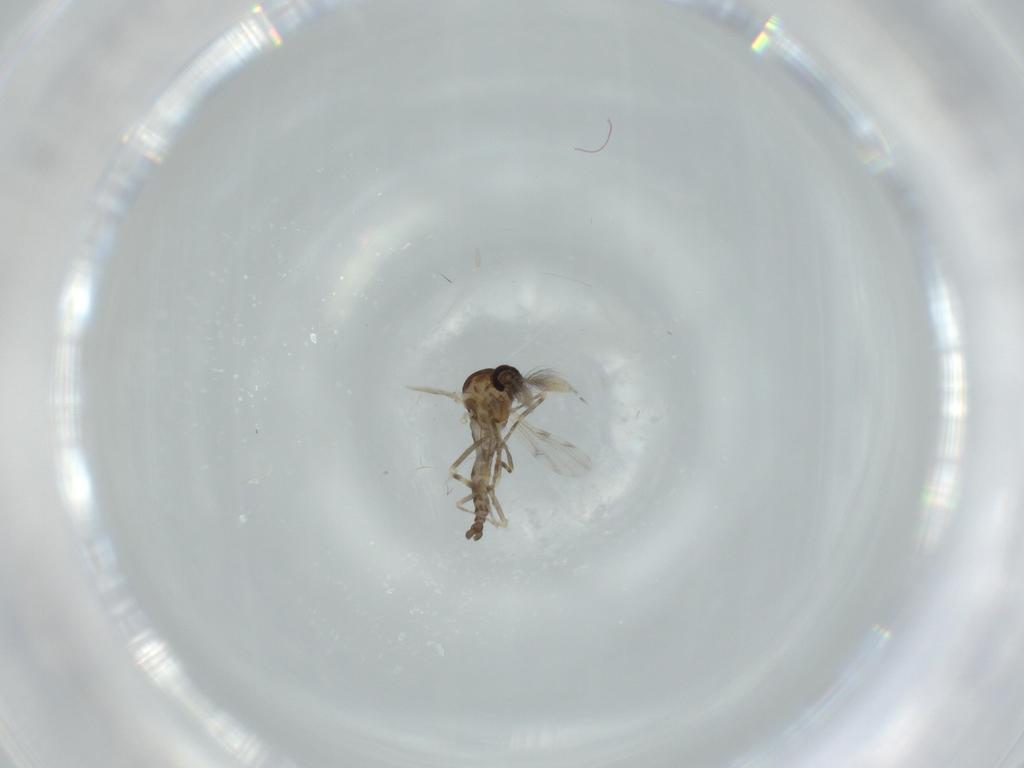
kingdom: Animalia
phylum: Arthropoda
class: Insecta
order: Diptera
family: Ceratopogonidae
